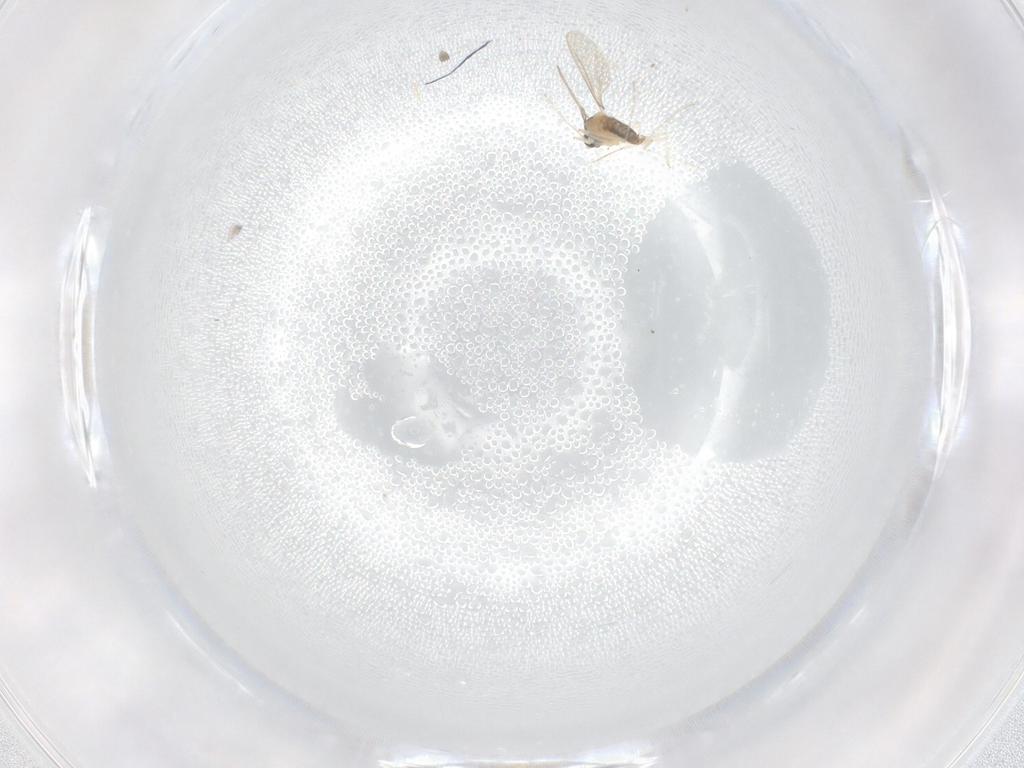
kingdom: Animalia
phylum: Arthropoda
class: Insecta
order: Diptera
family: Cecidomyiidae
